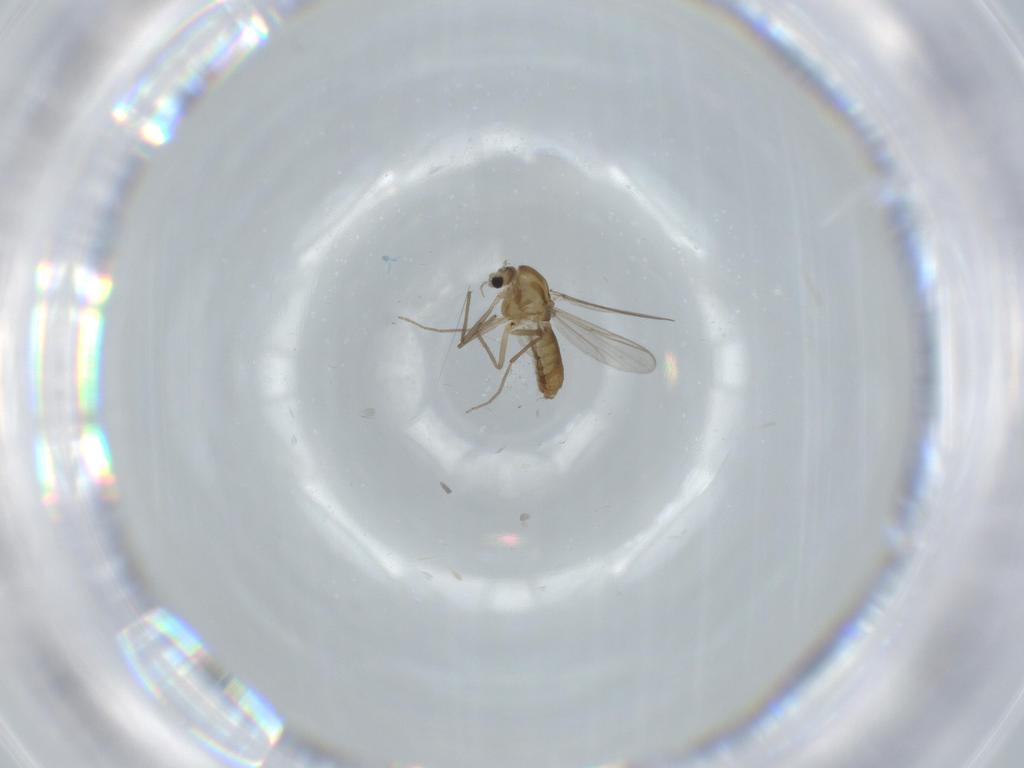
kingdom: Animalia
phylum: Arthropoda
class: Insecta
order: Diptera
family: Chironomidae
